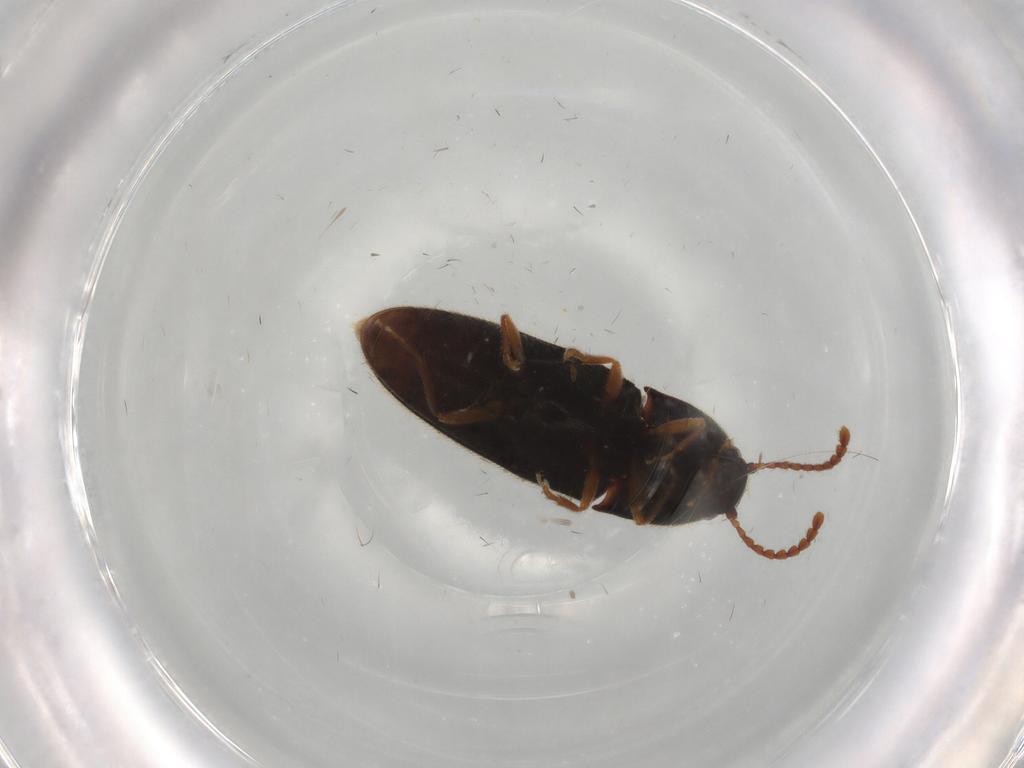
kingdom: Animalia
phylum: Arthropoda
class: Insecta
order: Coleoptera
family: Elateridae
